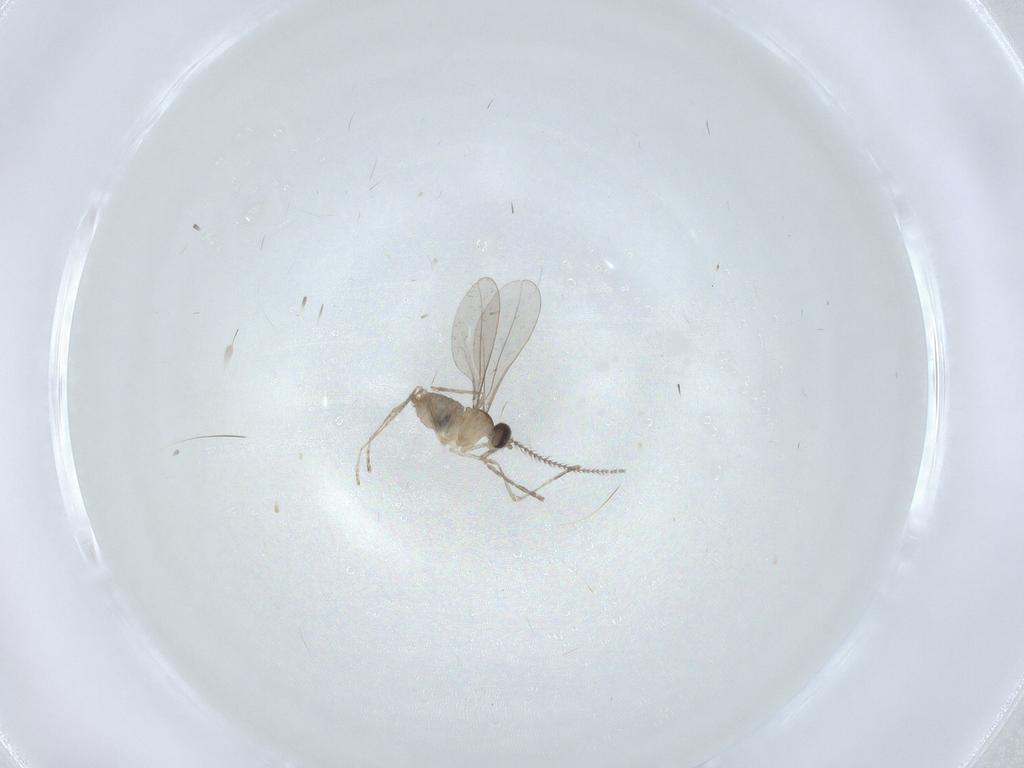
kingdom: Animalia
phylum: Arthropoda
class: Insecta
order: Diptera
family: Cecidomyiidae
